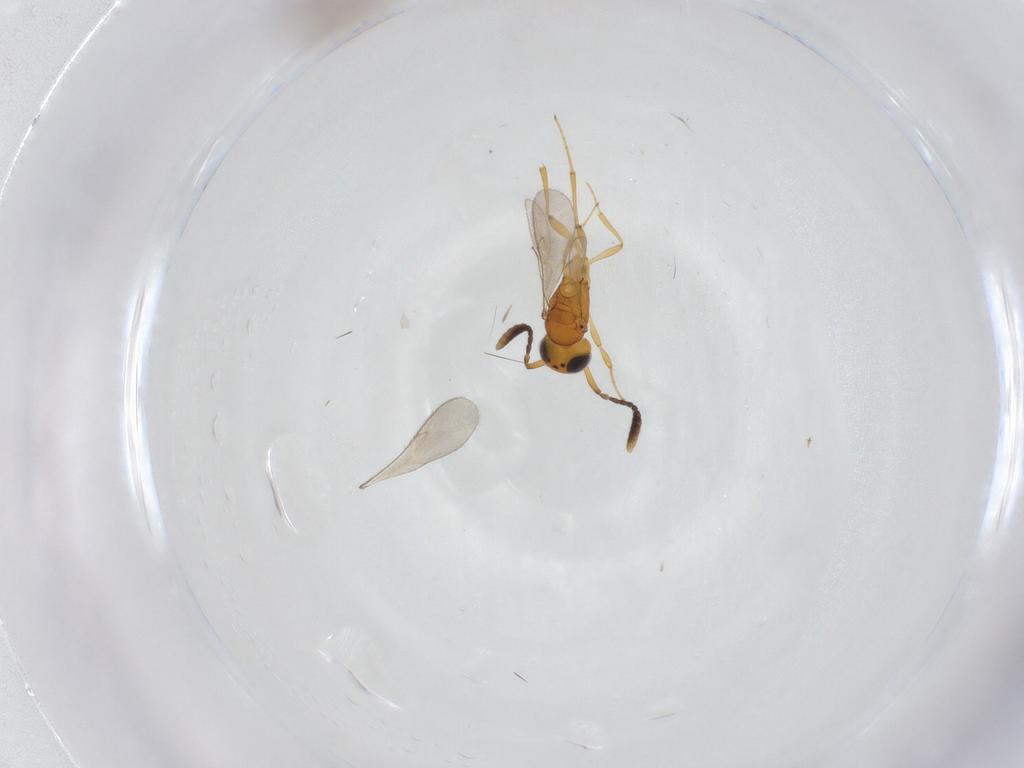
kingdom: Animalia
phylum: Arthropoda
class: Insecta
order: Hymenoptera
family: Scelionidae
